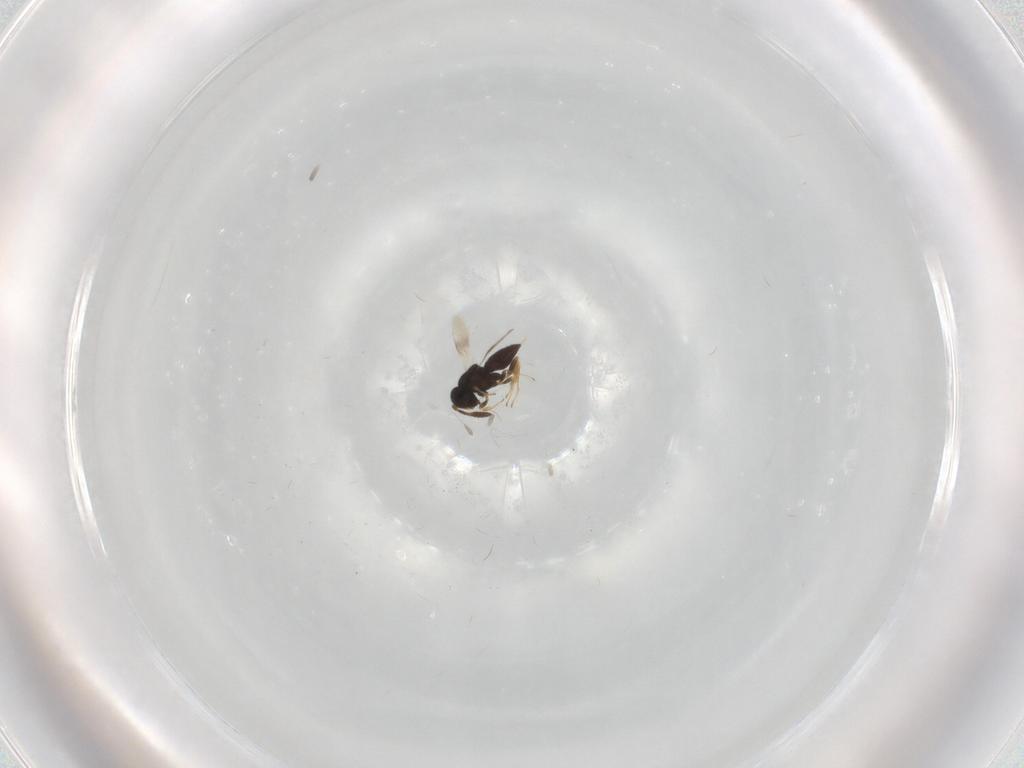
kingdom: Animalia
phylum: Arthropoda
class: Insecta
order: Hymenoptera
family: Scelionidae
